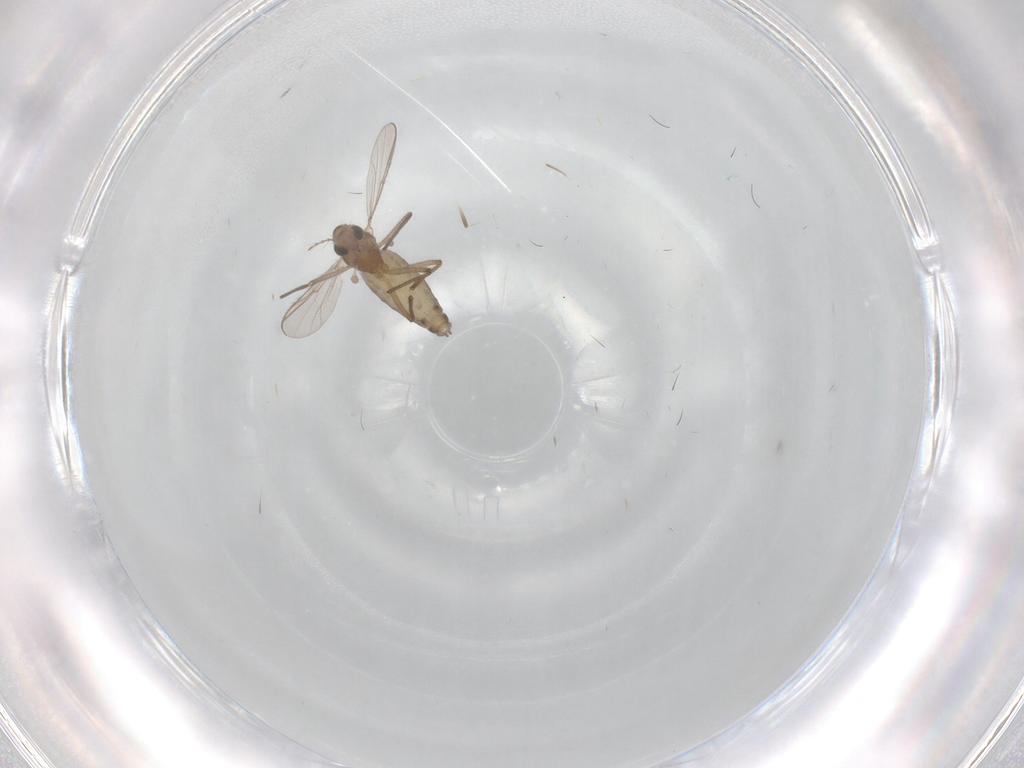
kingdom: Animalia
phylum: Arthropoda
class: Insecta
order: Diptera
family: Chironomidae
